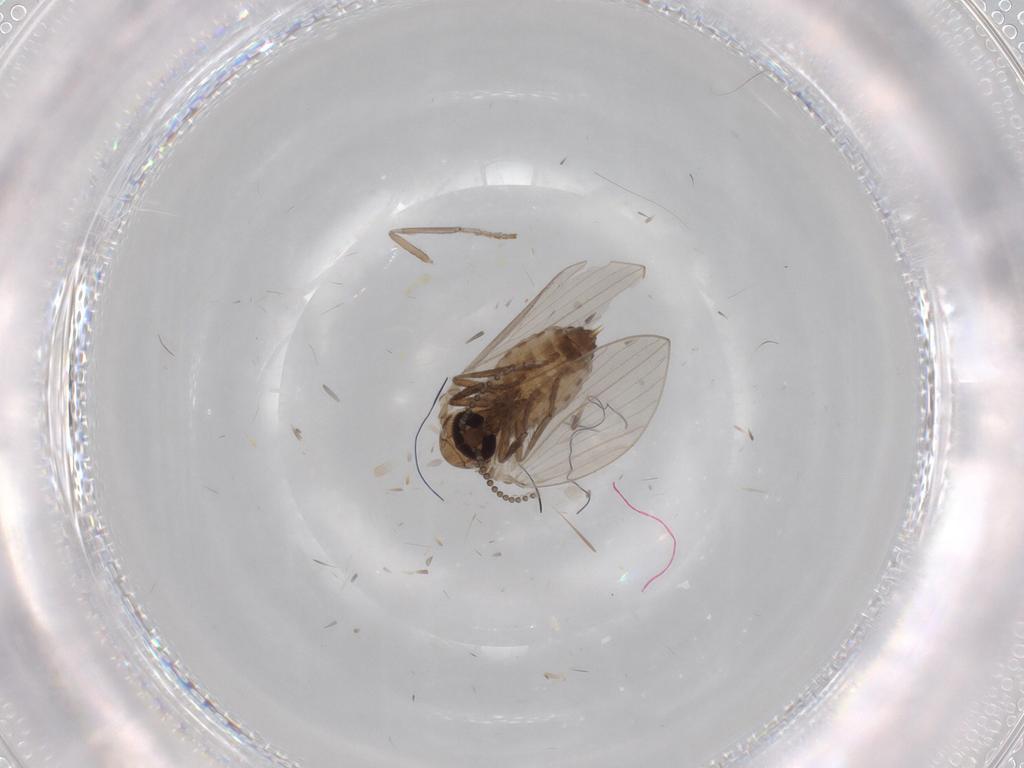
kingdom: Animalia
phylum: Arthropoda
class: Insecta
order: Diptera
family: Psychodidae
